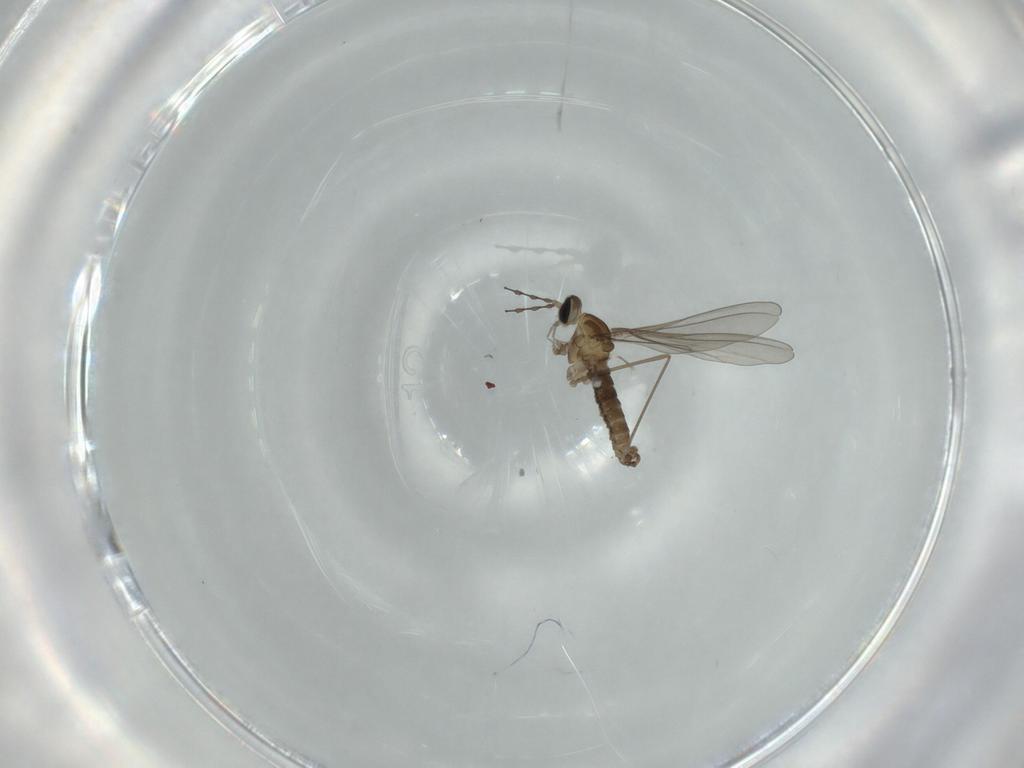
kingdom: Animalia
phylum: Arthropoda
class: Insecta
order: Diptera
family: Cecidomyiidae
